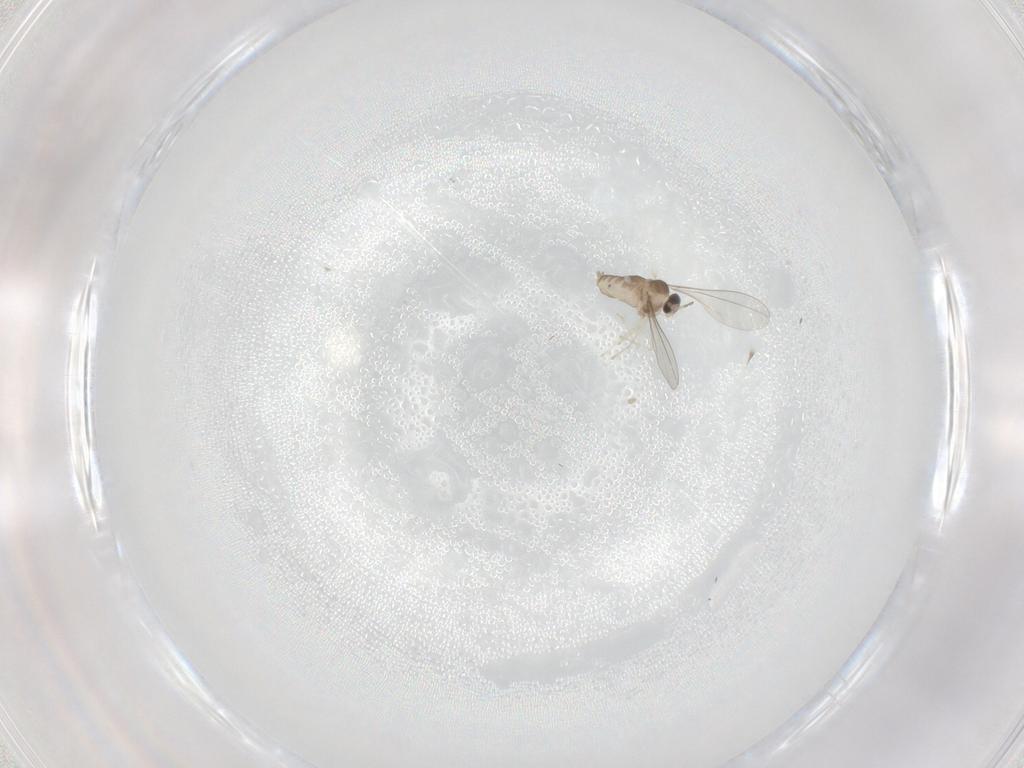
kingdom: Animalia
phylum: Arthropoda
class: Insecta
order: Diptera
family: Cecidomyiidae
